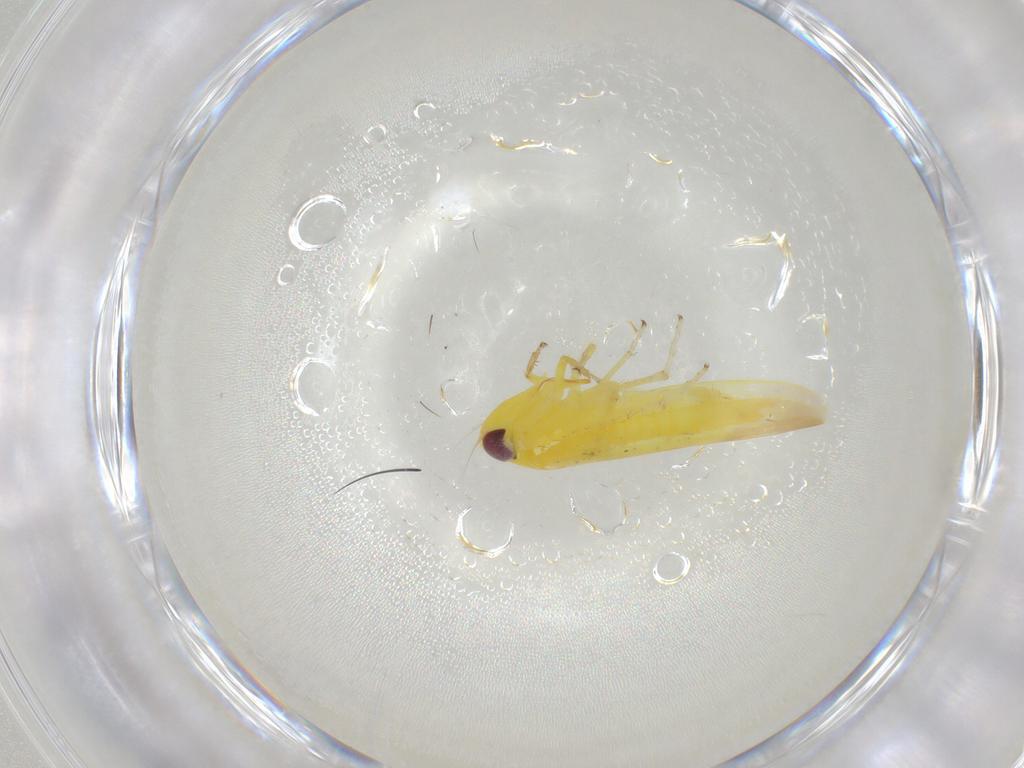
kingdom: Animalia
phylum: Arthropoda
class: Insecta
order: Hemiptera
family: Cicadellidae
